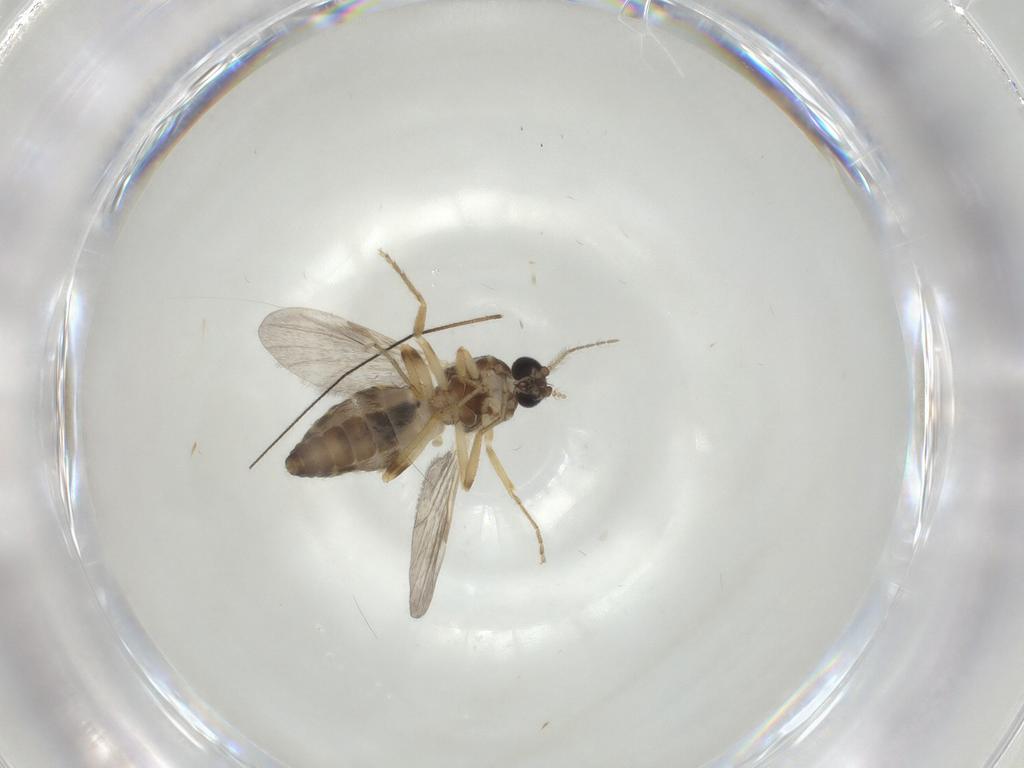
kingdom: Animalia
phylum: Arthropoda
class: Insecta
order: Diptera
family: Ceratopogonidae
